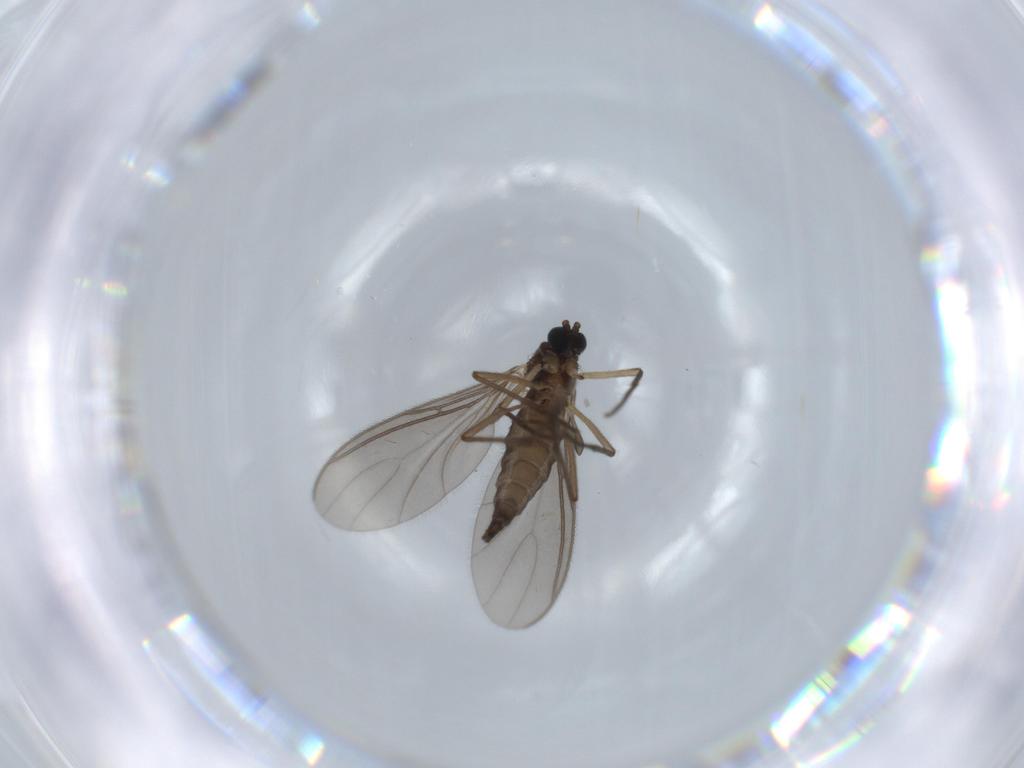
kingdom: Animalia
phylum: Arthropoda
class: Insecta
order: Diptera
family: Sciaridae
